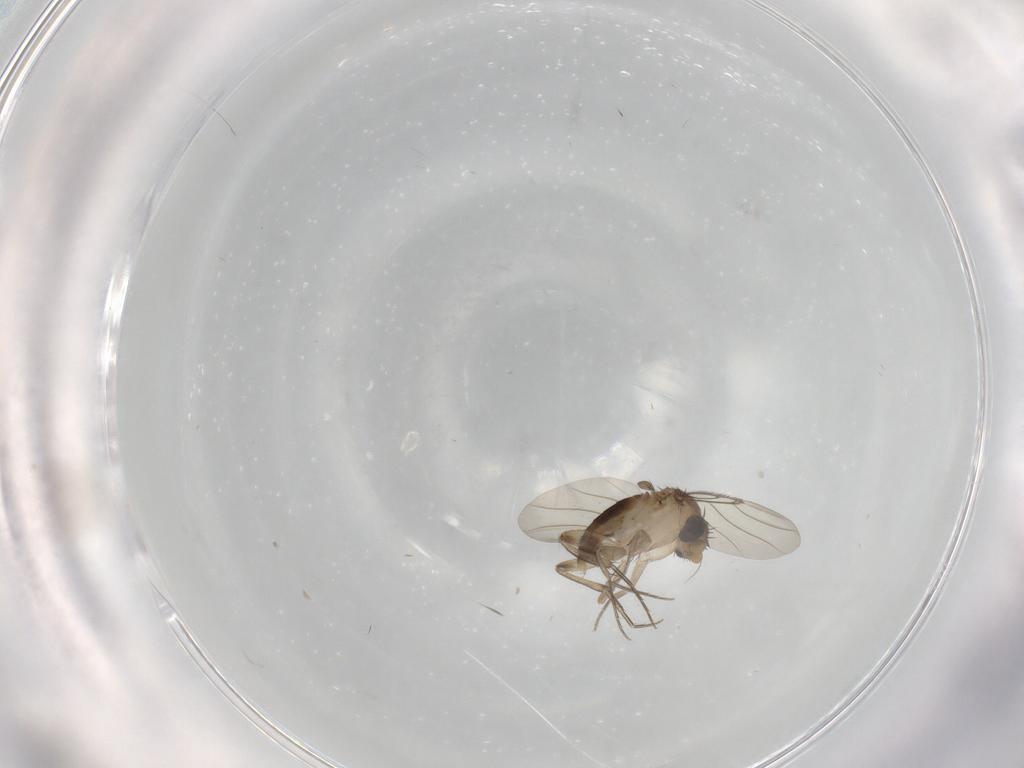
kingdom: Animalia
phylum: Arthropoda
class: Insecta
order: Diptera
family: Phoridae
